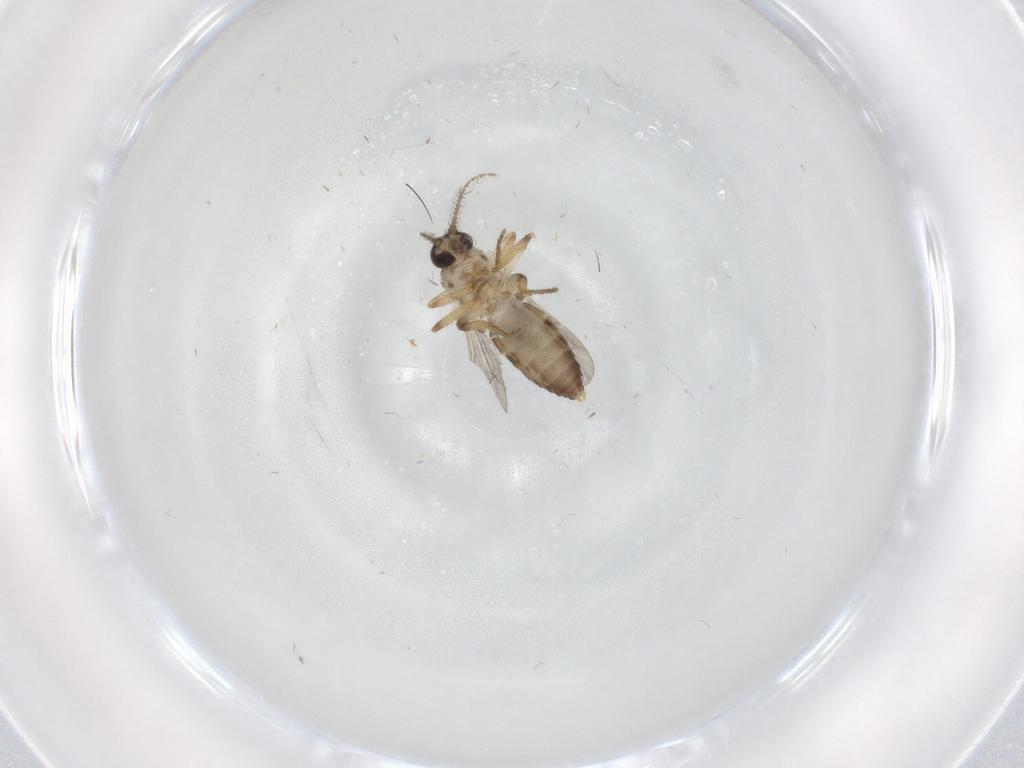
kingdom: Animalia
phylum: Arthropoda
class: Insecta
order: Diptera
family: Ceratopogonidae
